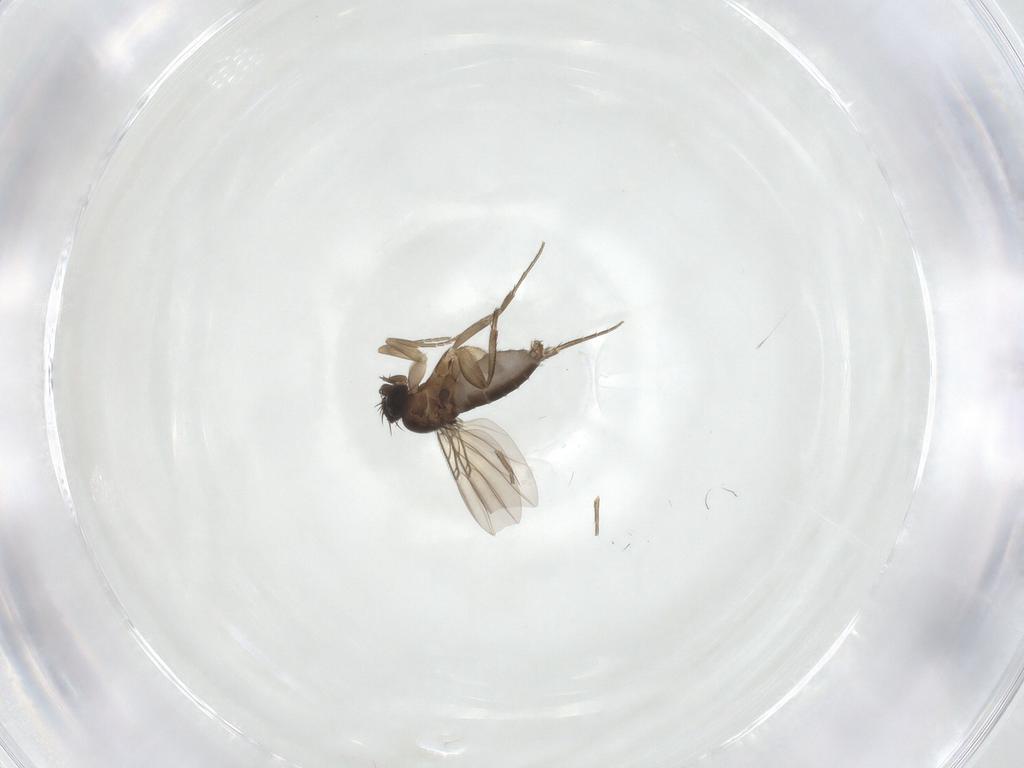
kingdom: Animalia
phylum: Arthropoda
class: Insecta
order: Diptera
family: Phoridae
